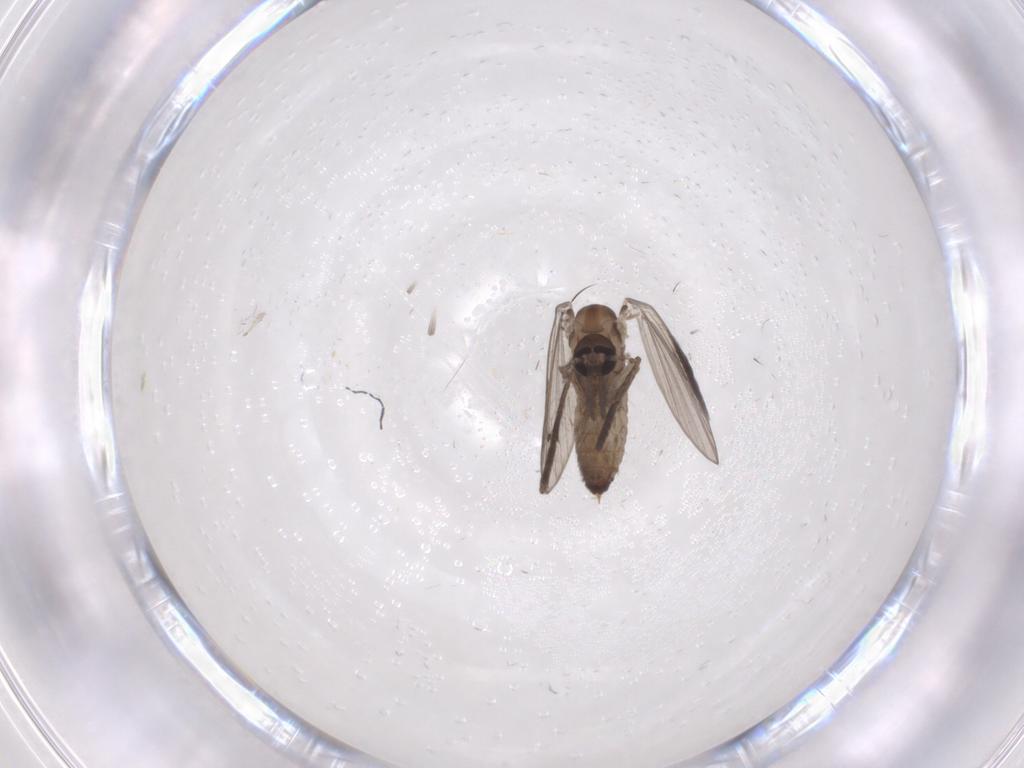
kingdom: Animalia
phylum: Arthropoda
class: Insecta
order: Diptera
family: Psychodidae
